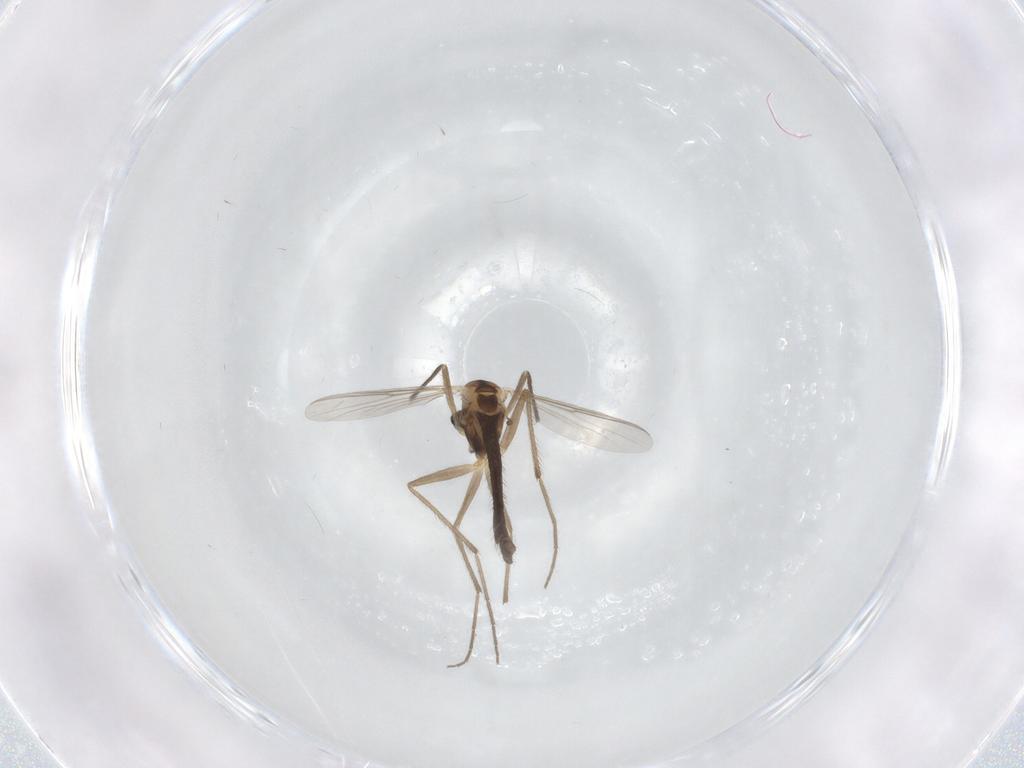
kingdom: Animalia
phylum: Arthropoda
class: Insecta
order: Diptera
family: Chironomidae
